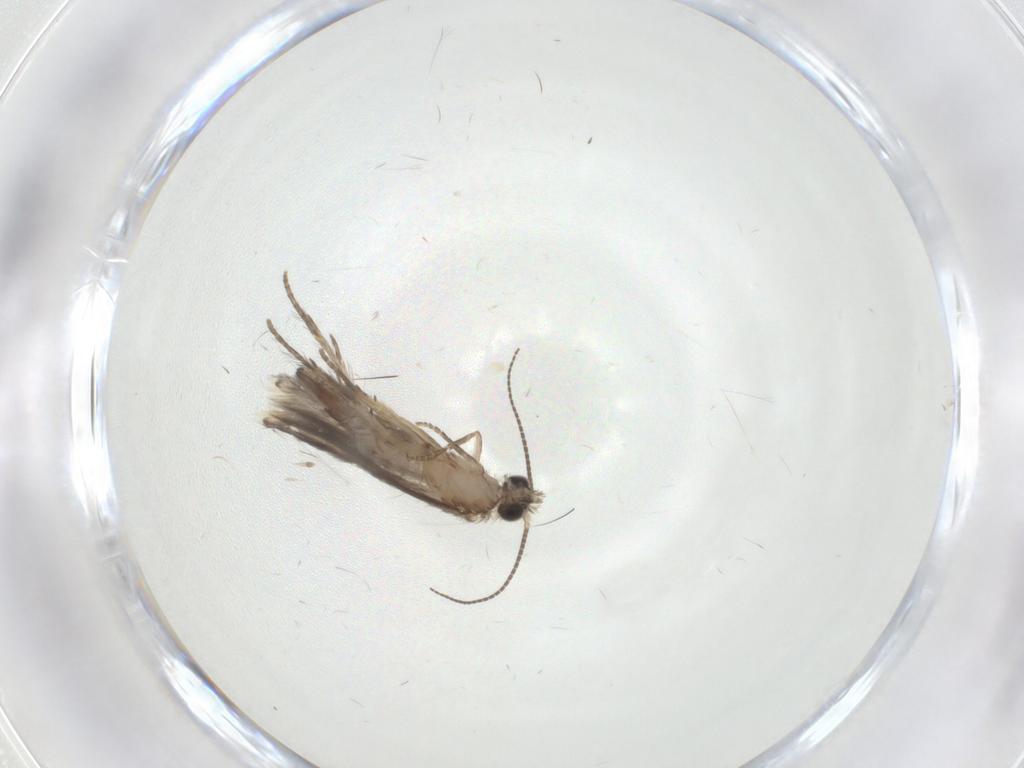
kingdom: Animalia
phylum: Arthropoda
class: Insecta
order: Trichoptera
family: Hydroptilidae
